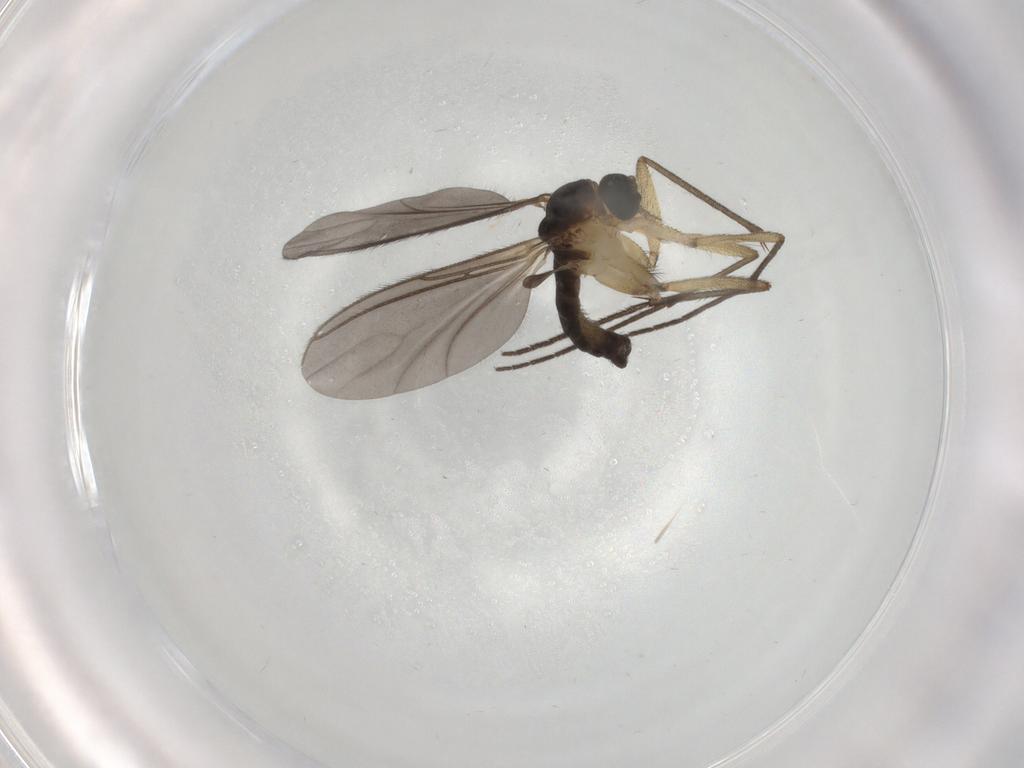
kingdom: Animalia
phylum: Arthropoda
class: Insecta
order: Diptera
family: Sciaridae
